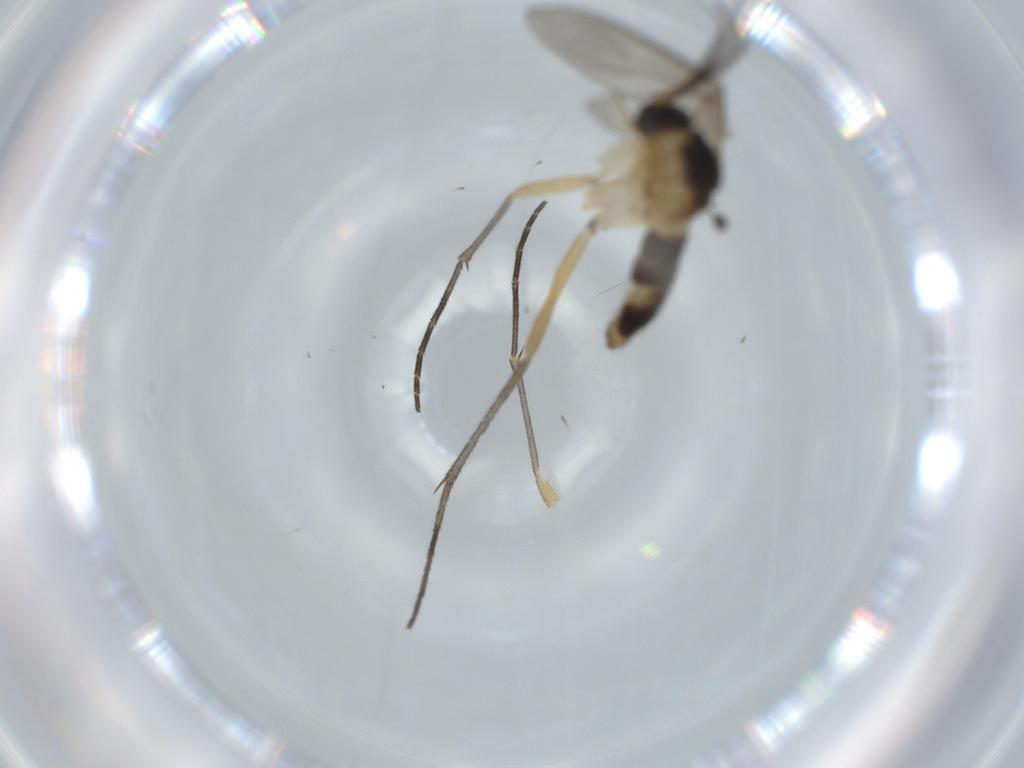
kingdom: Animalia
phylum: Arthropoda
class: Insecta
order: Diptera
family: Sciaridae
